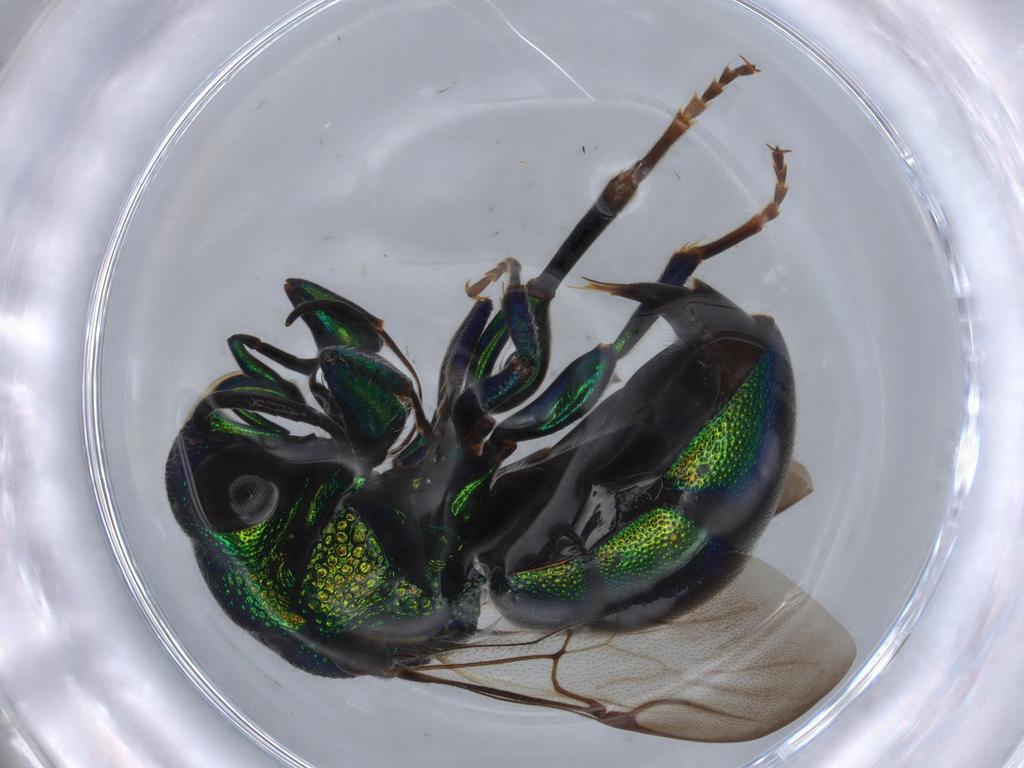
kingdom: Animalia
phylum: Arthropoda
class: Insecta
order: Hymenoptera
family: Chrysididae
